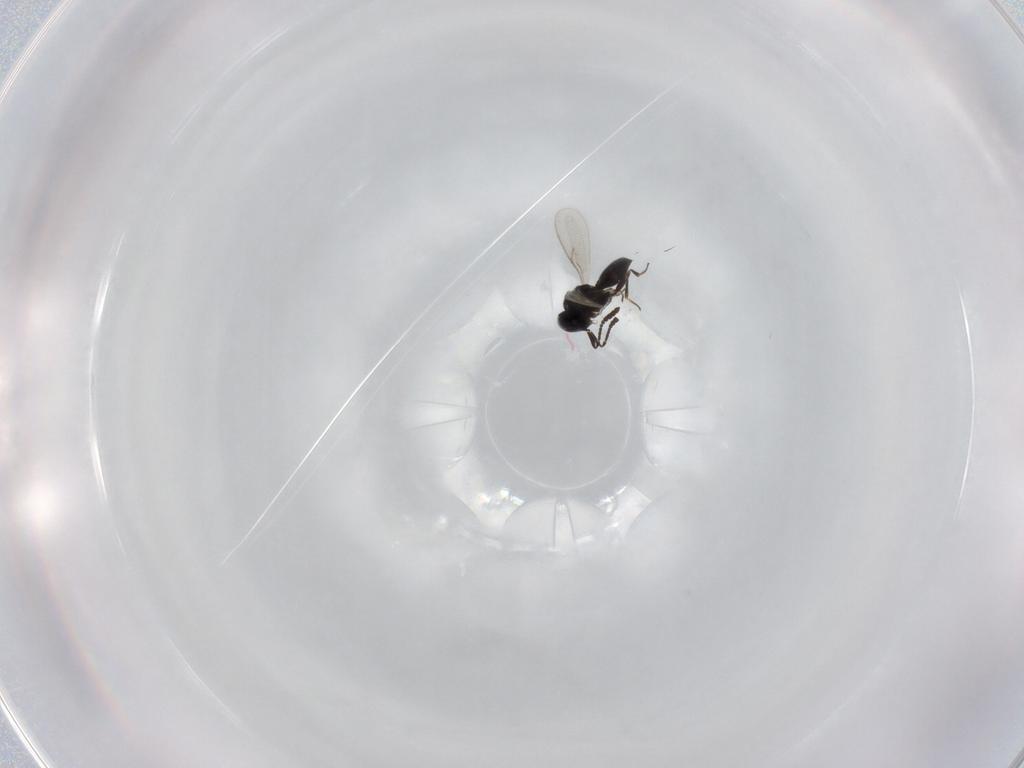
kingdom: Animalia
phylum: Arthropoda
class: Insecta
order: Hymenoptera
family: Scelionidae
